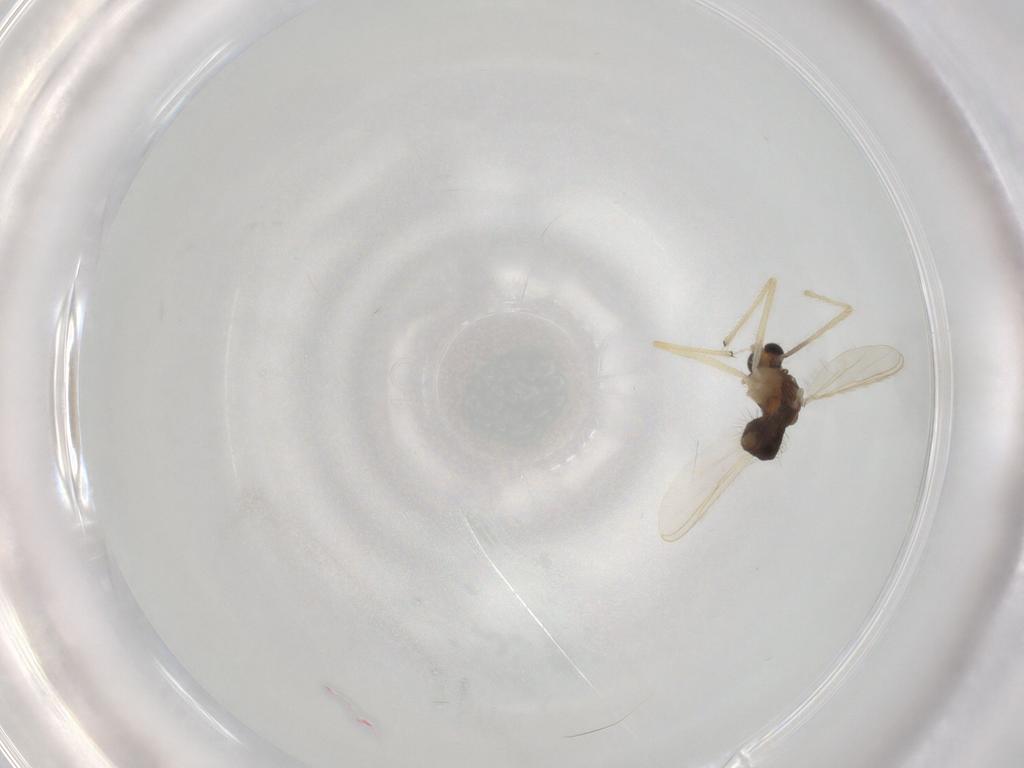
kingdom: Animalia
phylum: Arthropoda
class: Insecta
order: Diptera
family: Chironomidae
